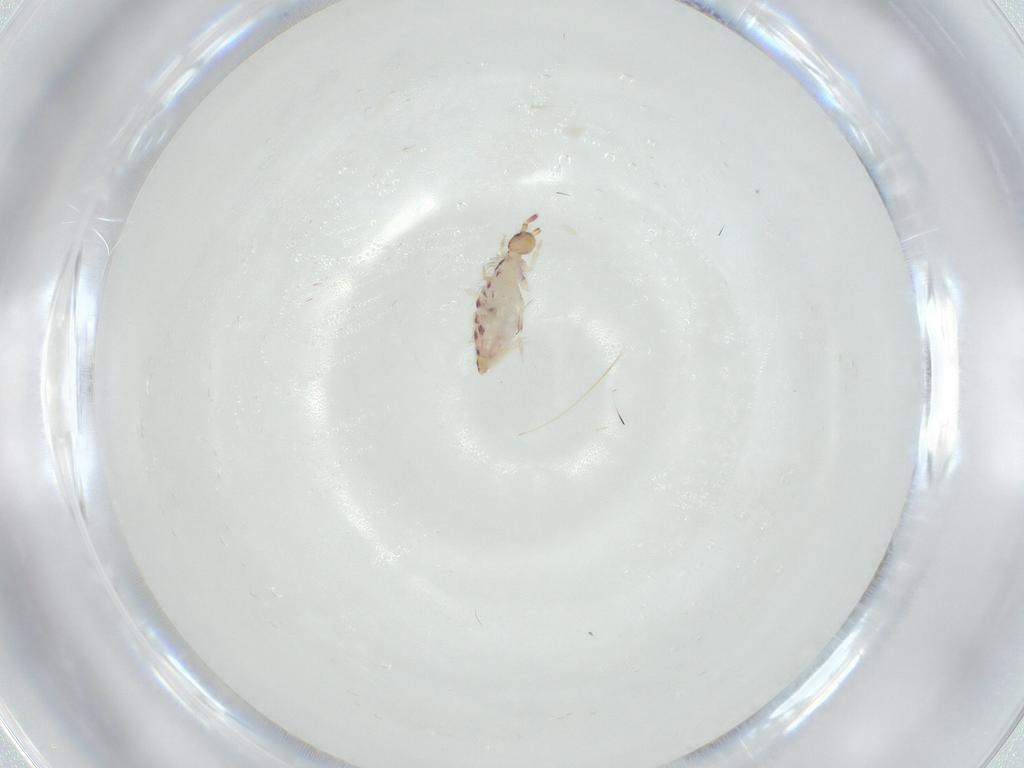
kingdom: Animalia
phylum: Arthropoda
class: Collembola
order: Entomobryomorpha
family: Entomobryidae
